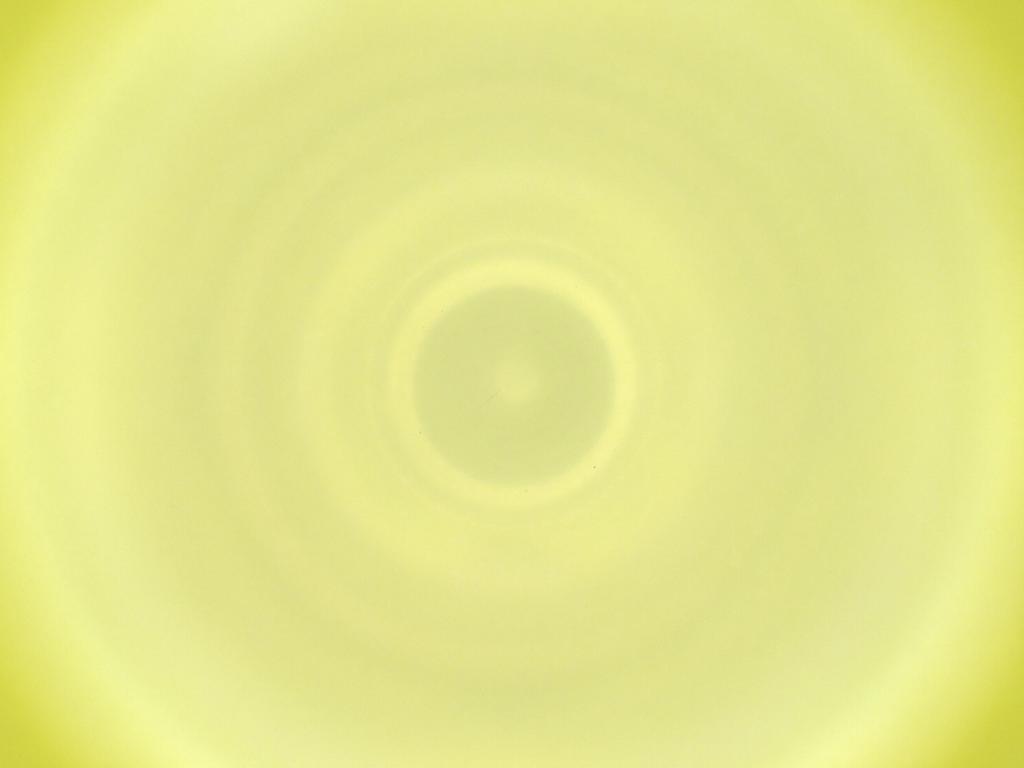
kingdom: Animalia
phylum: Arthropoda
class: Insecta
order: Diptera
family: Cecidomyiidae
